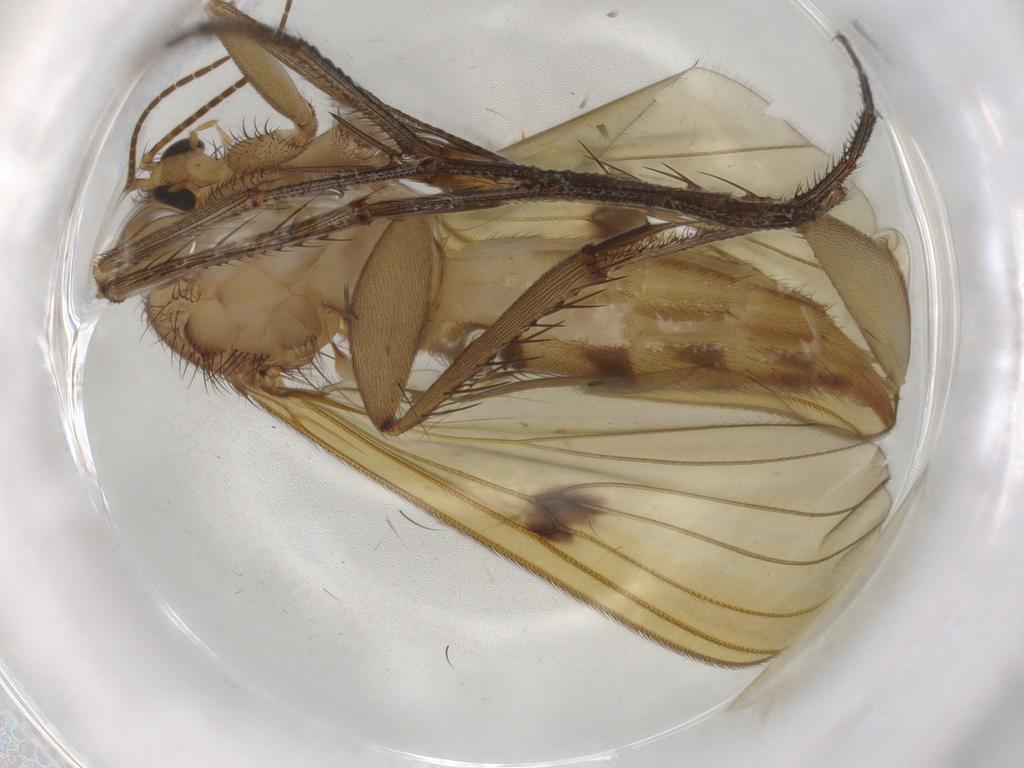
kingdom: Animalia
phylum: Arthropoda
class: Insecta
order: Diptera
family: Mycetophilidae
